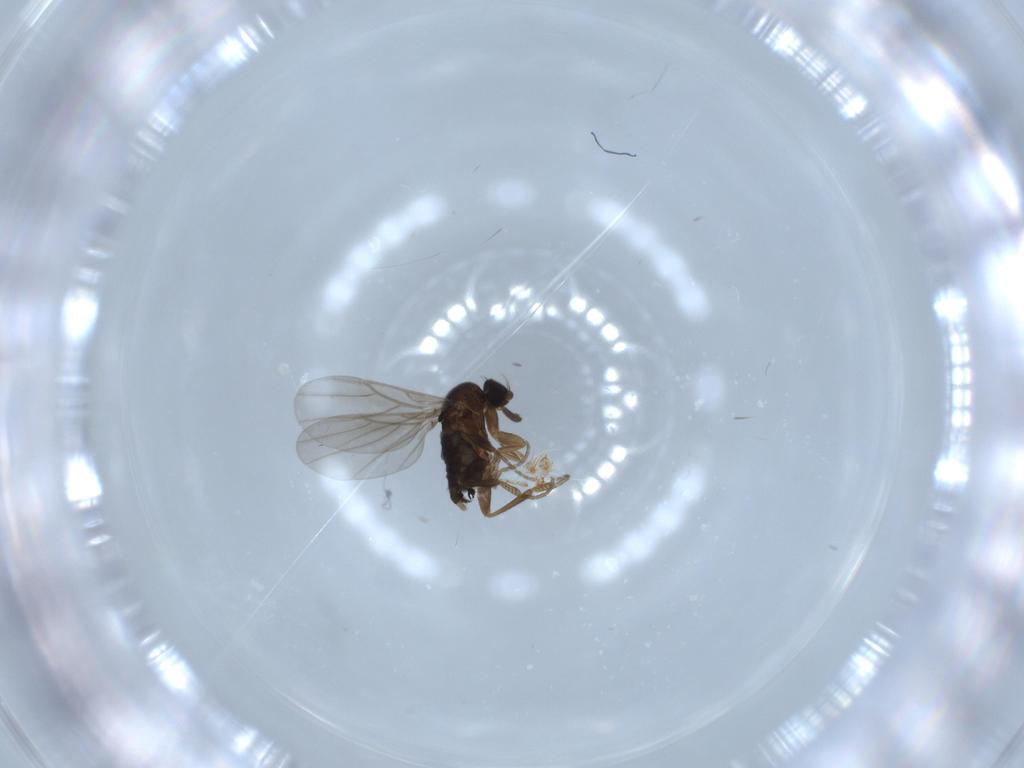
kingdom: Animalia
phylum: Arthropoda
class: Insecta
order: Diptera
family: Phoridae
